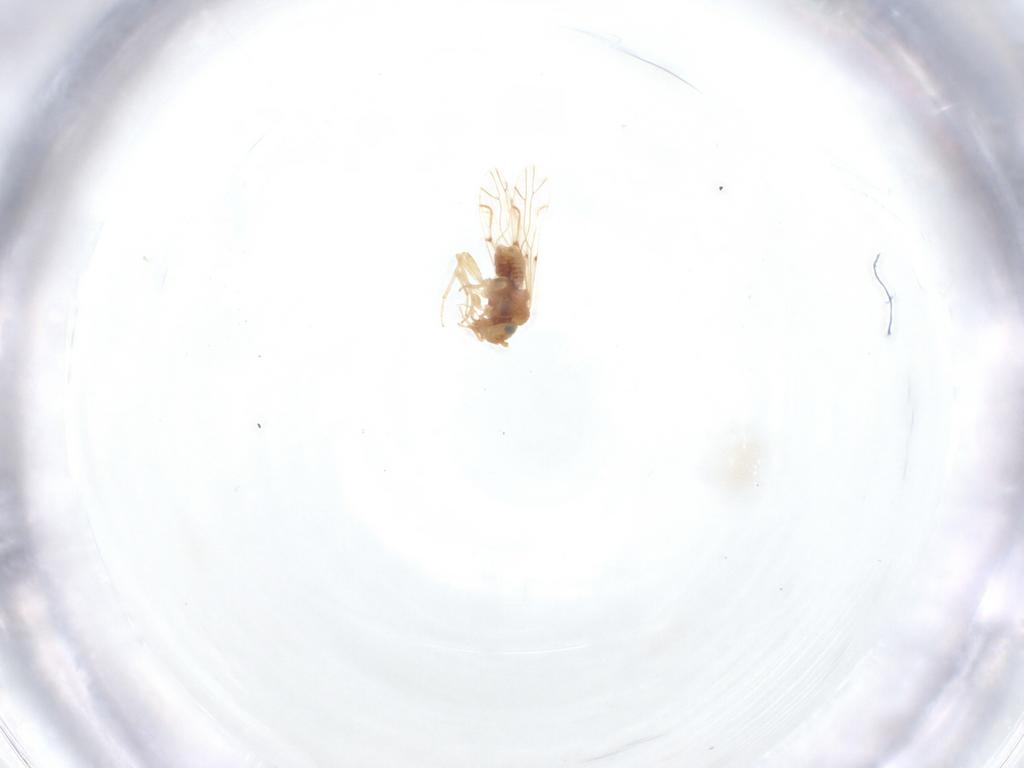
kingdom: Animalia
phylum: Arthropoda
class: Insecta
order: Psocodea
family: Lachesillidae
